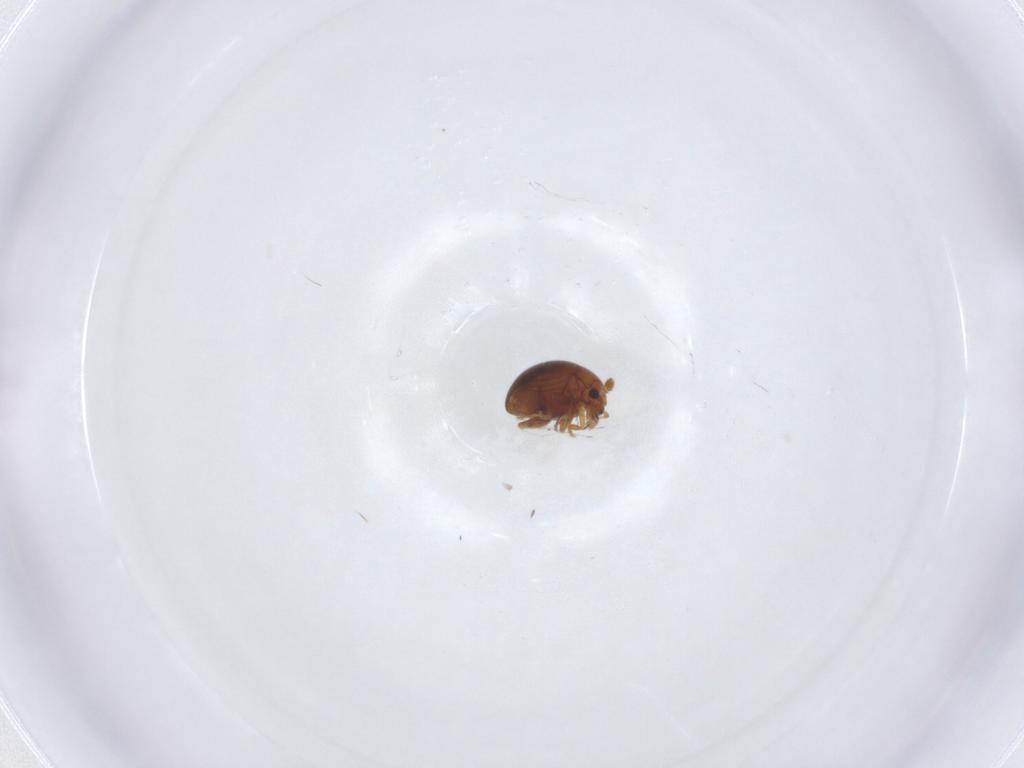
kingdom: Animalia
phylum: Arthropoda
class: Insecta
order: Coleoptera
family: Chrysomelidae
